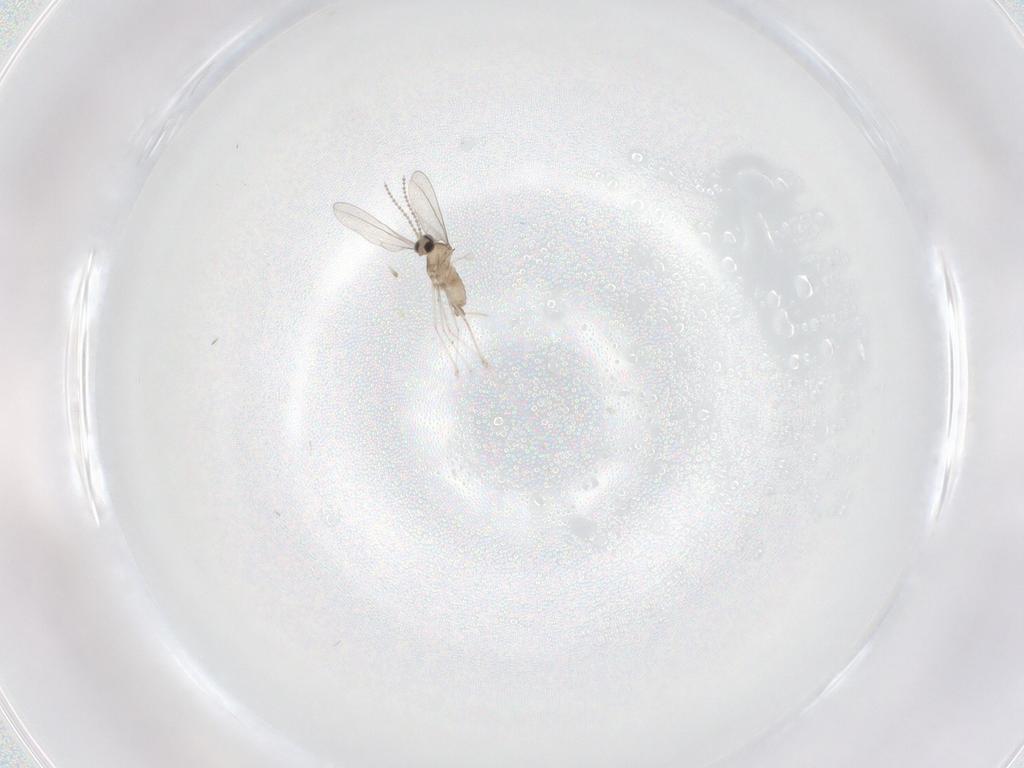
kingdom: Animalia
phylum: Arthropoda
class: Insecta
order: Diptera
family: Cecidomyiidae
